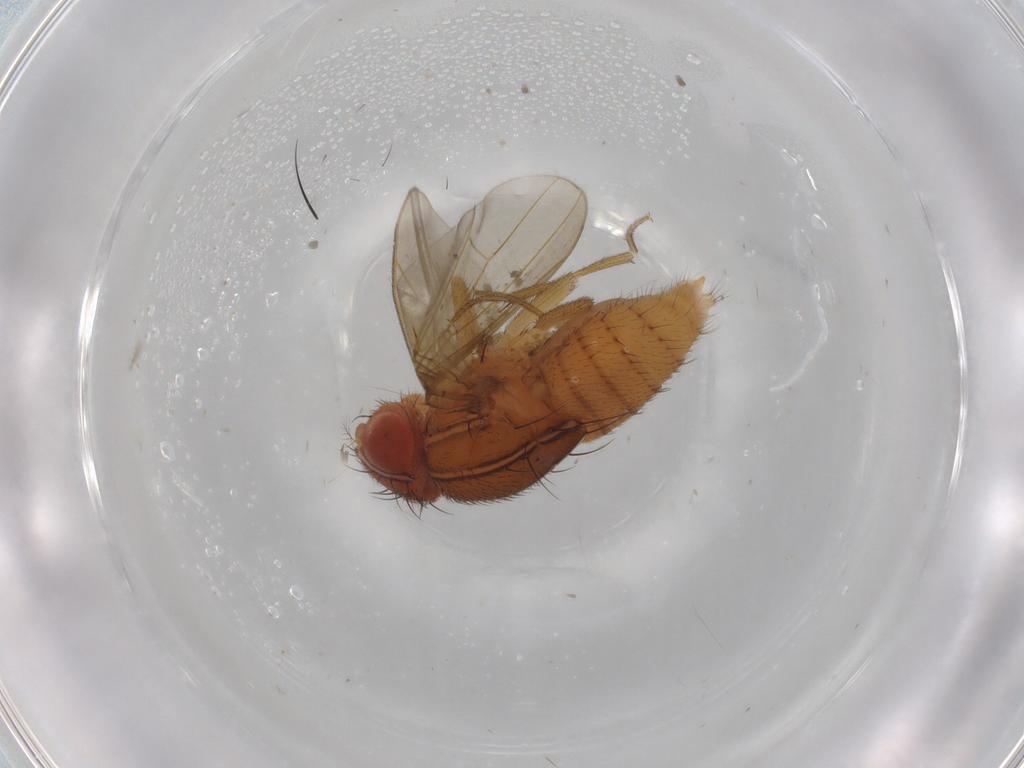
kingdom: Animalia
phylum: Arthropoda
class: Insecta
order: Diptera
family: Drosophilidae
